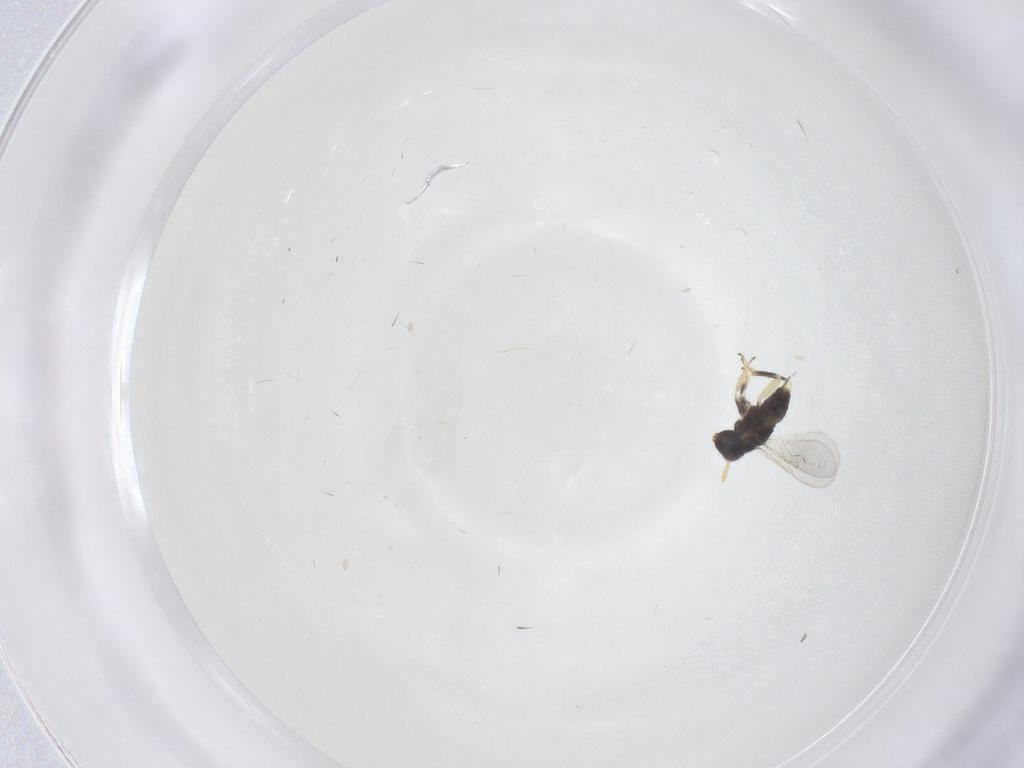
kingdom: Animalia
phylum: Arthropoda
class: Insecta
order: Hymenoptera
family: Aphelinidae
